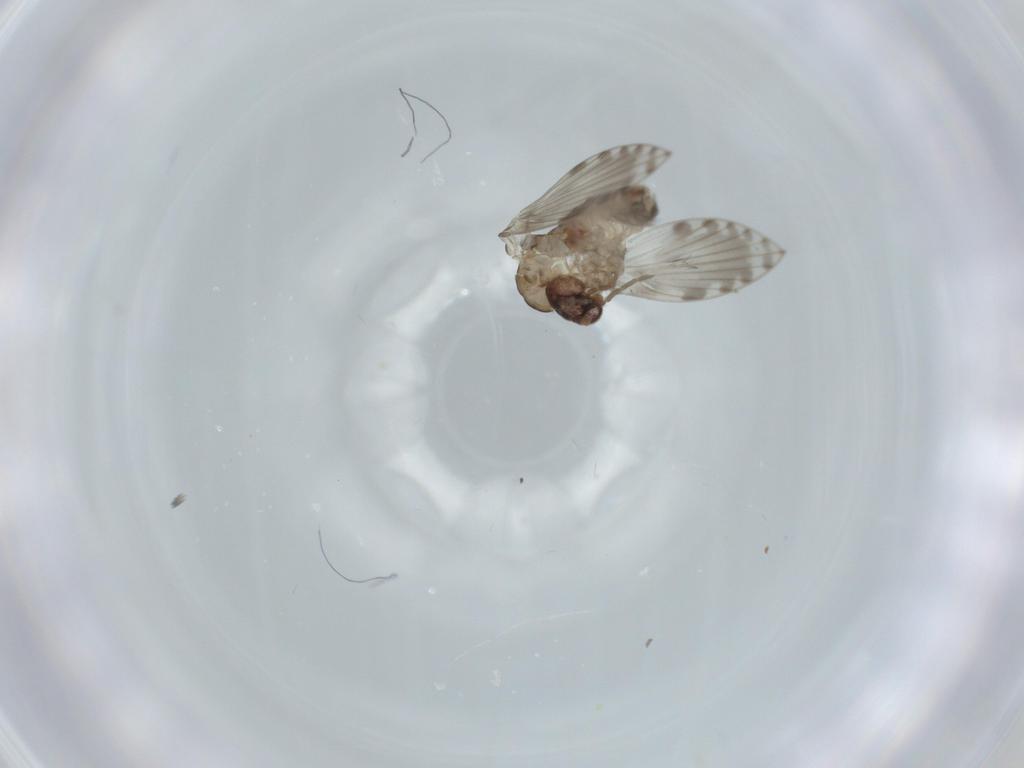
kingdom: Animalia
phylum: Arthropoda
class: Insecta
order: Diptera
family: Psychodidae
